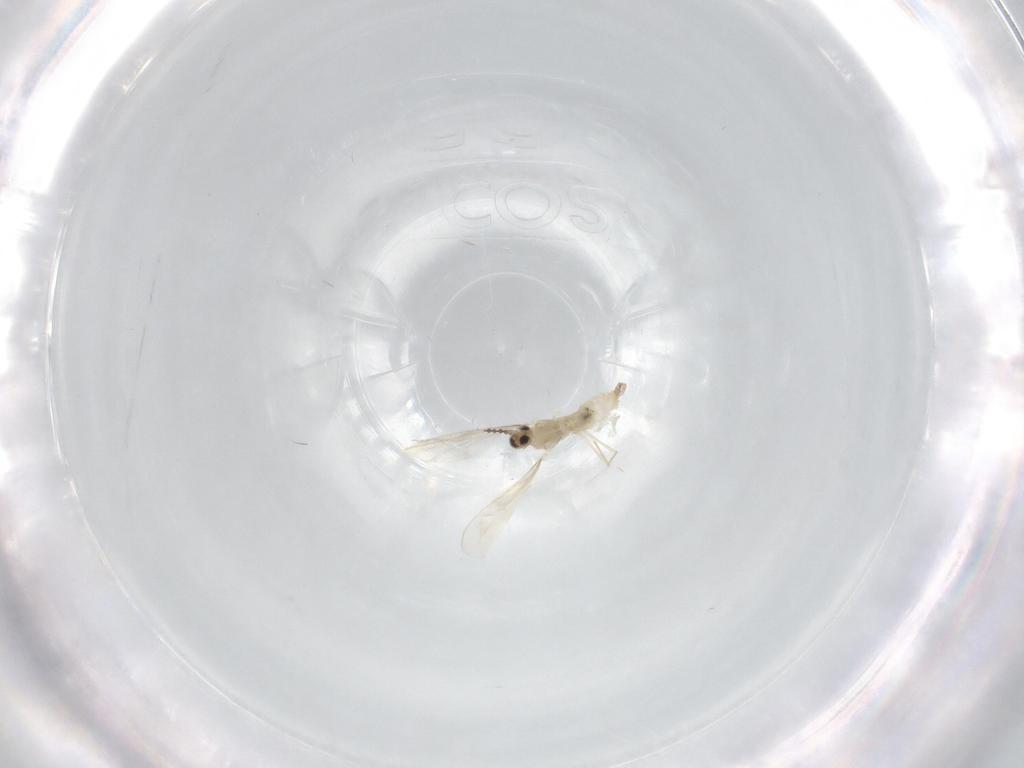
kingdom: Animalia
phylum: Arthropoda
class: Insecta
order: Diptera
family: Cecidomyiidae
